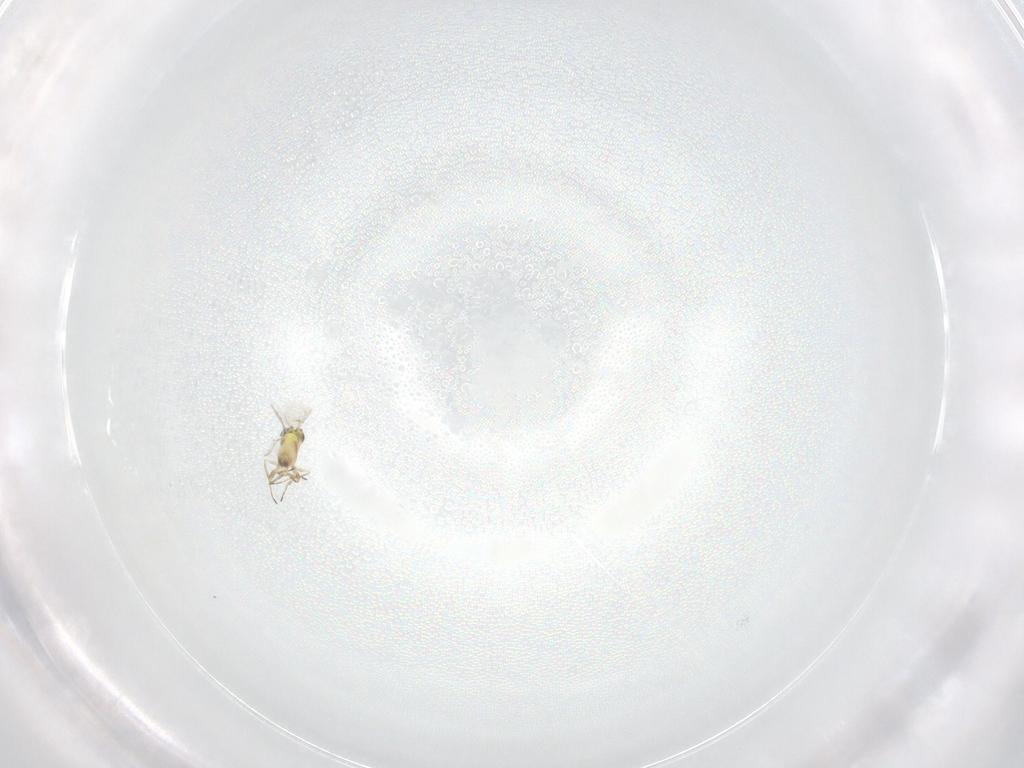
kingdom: Animalia
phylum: Arthropoda
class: Insecta
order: Hymenoptera
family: Trichogrammatidae
